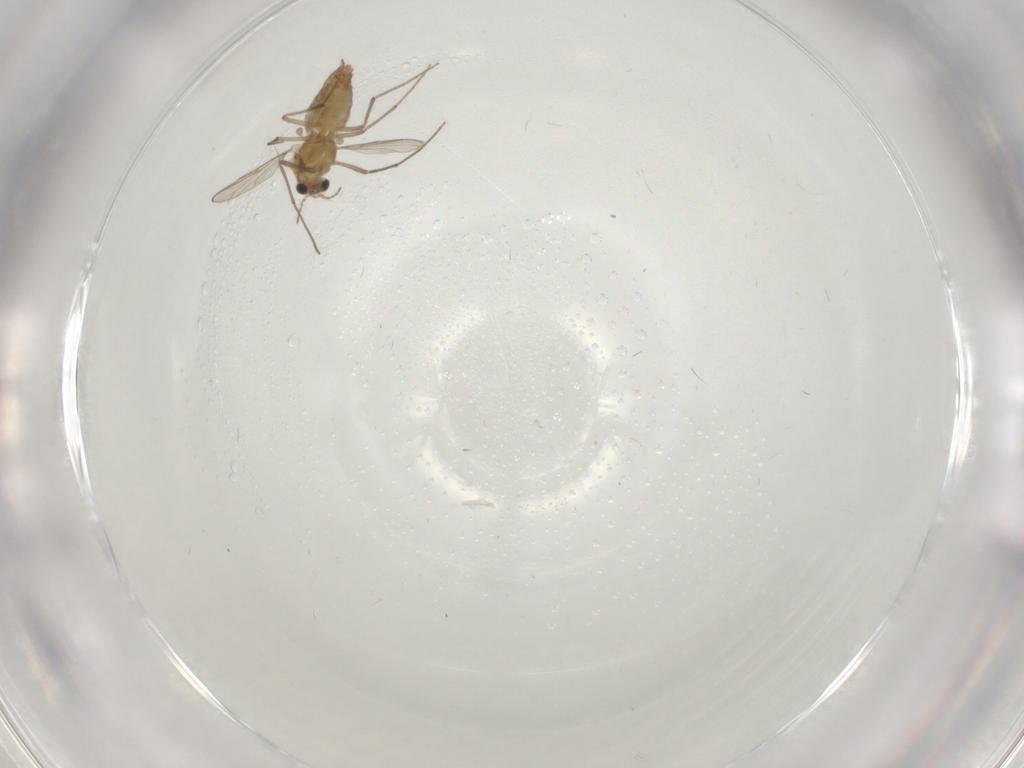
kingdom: Animalia
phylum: Arthropoda
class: Insecta
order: Diptera
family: Chironomidae
